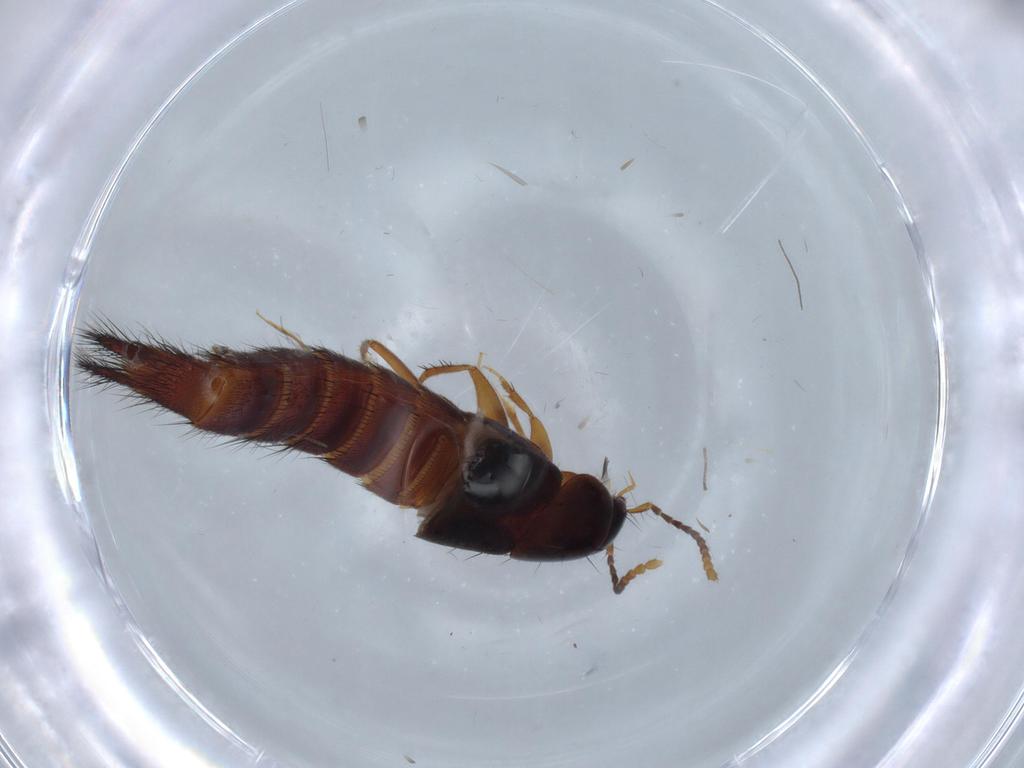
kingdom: Animalia
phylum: Arthropoda
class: Insecta
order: Coleoptera
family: Staphylinidae
